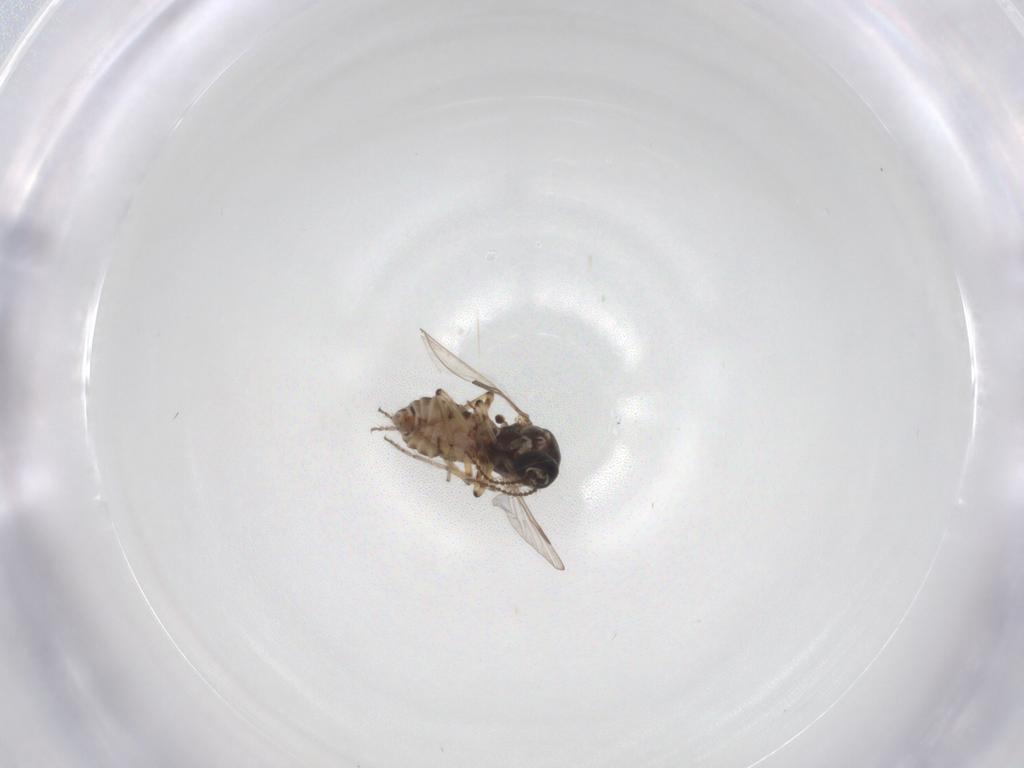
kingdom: Animalia
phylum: Arthropoda
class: Insecta
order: Diptera
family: Ceratopogonidae
